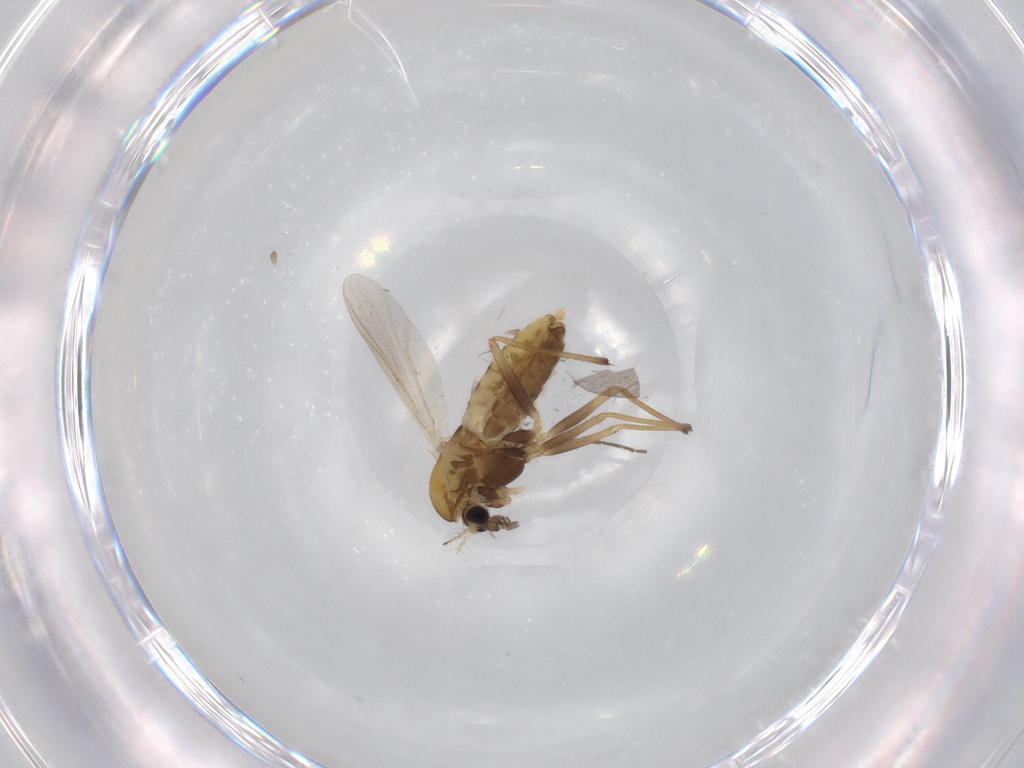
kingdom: Animalia
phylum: Arthropoda
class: Insecta
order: Diptera
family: Chironomidae
